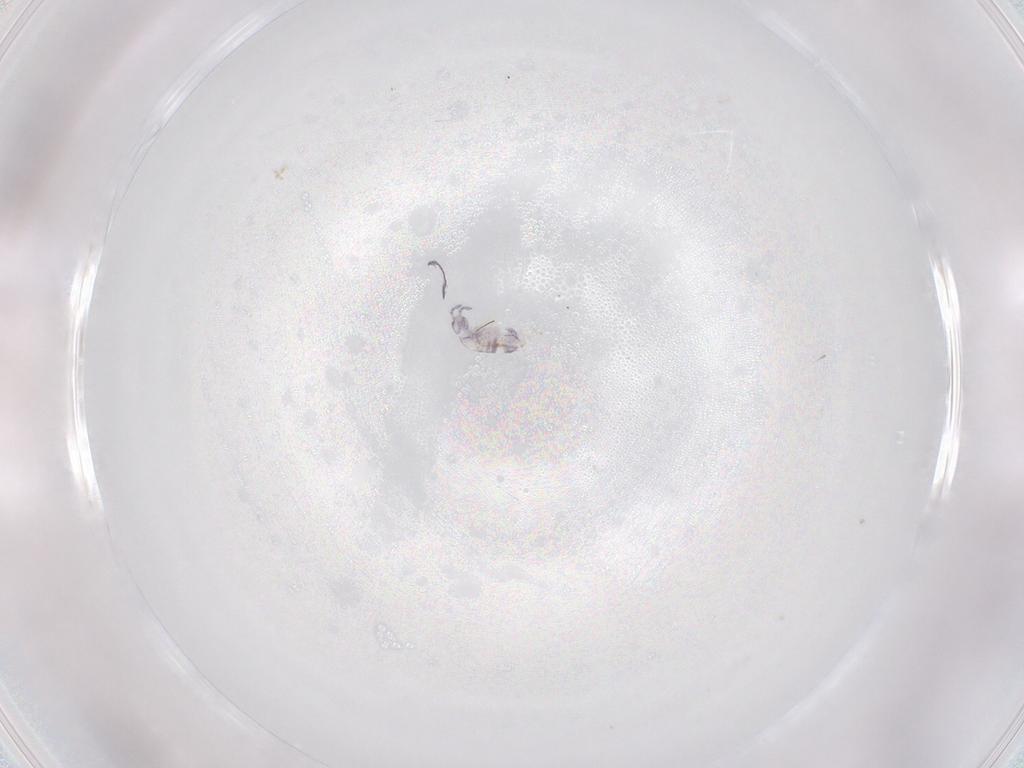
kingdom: Animalia
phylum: Arthropoda
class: Collembola
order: Entomobryomorpha
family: Entomobryidae
